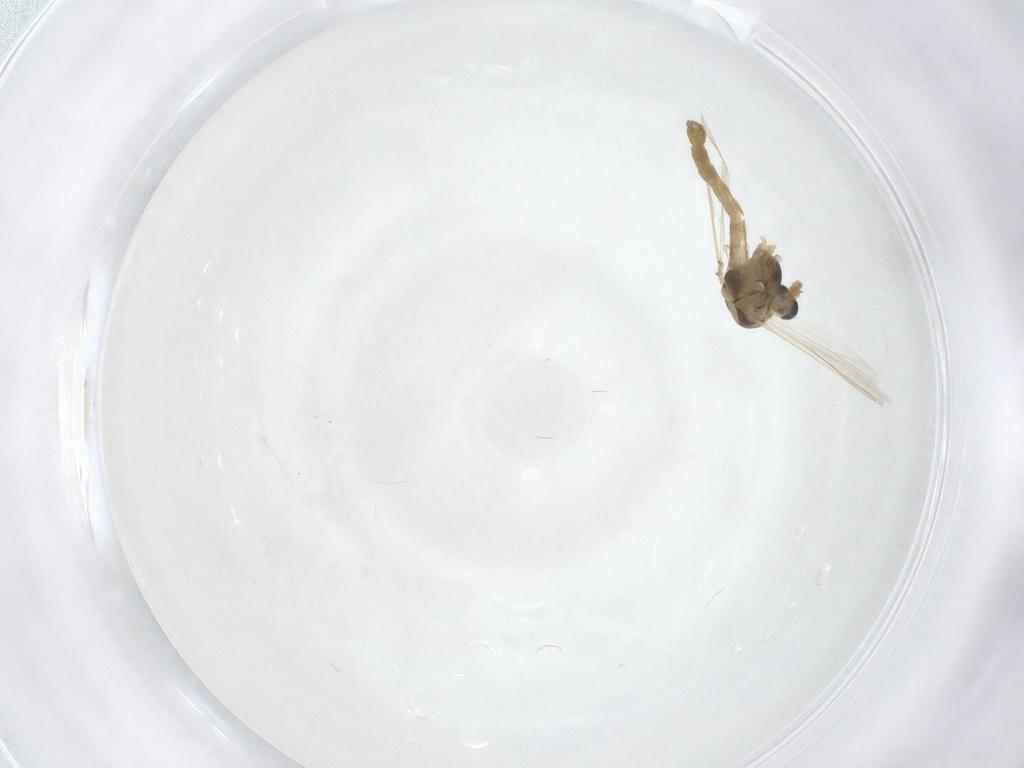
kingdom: Animalia
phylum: Arthropoda
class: Insecta
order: Diptera
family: Chironomidae
